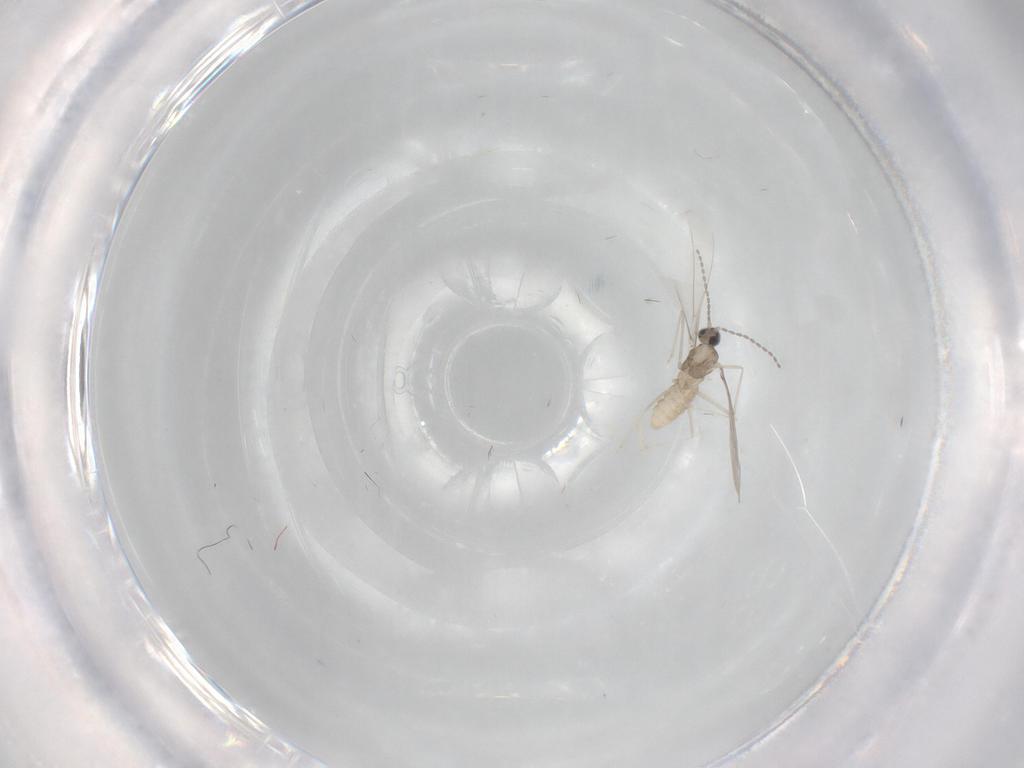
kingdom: Animalia
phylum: Arthropoda
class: Insecta
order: Diptera
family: Cecidomyiidae
